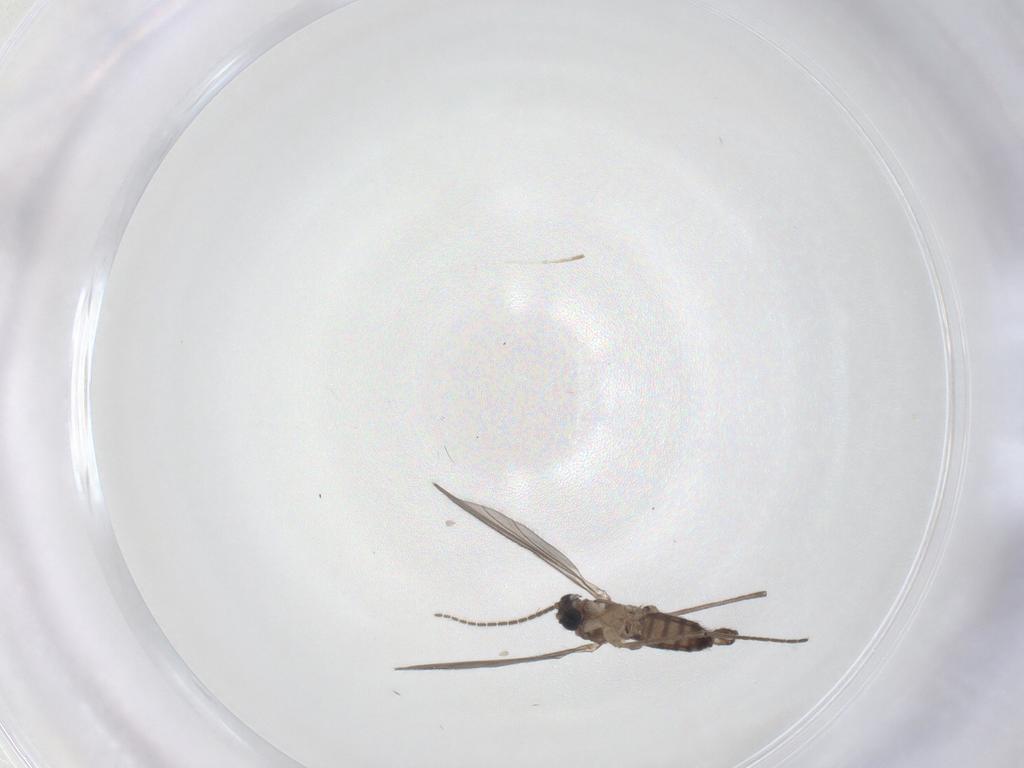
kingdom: Animalia
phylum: Arthropoda
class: Insecta
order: Diptera
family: Sciaridae
